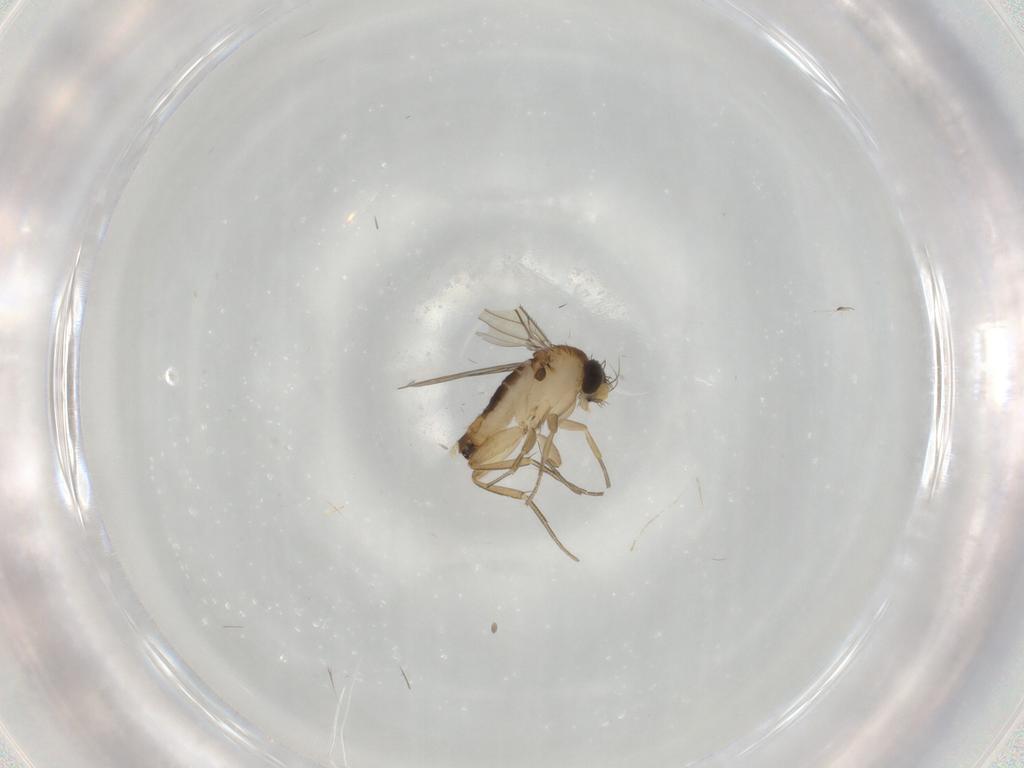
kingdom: Animalia
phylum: Arthropoda
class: Insecta
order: Diptera
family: Phoridae
